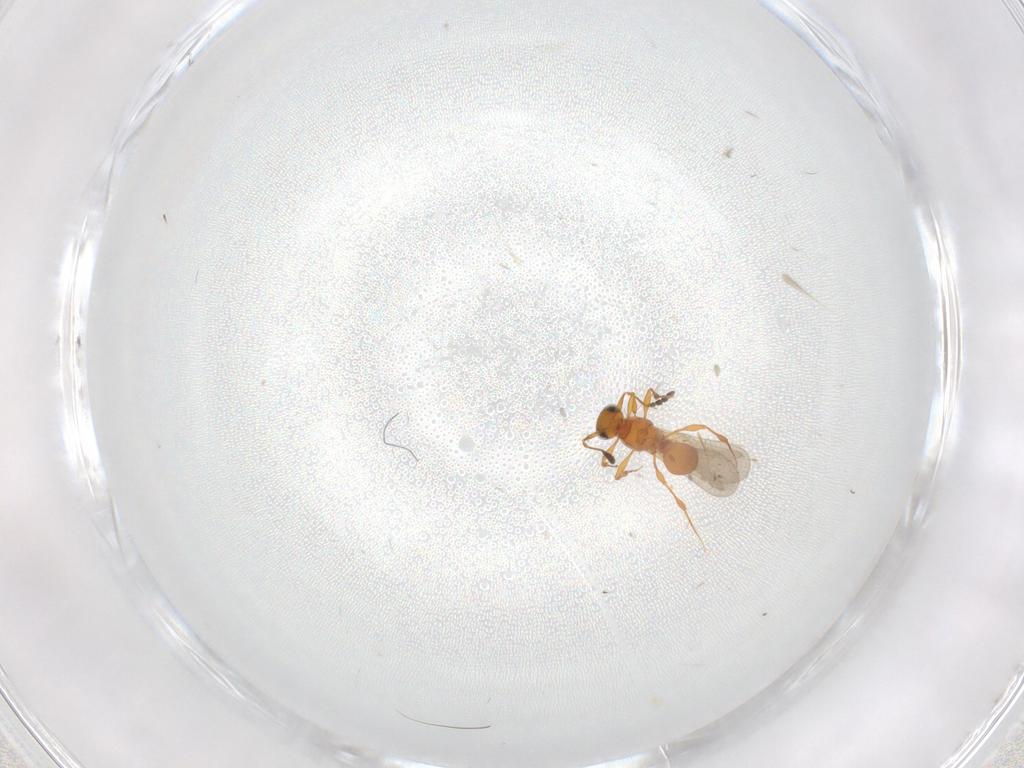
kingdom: Animalia
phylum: Arthropoda
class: Insecta
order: Hymenoptera
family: Platygastridae
